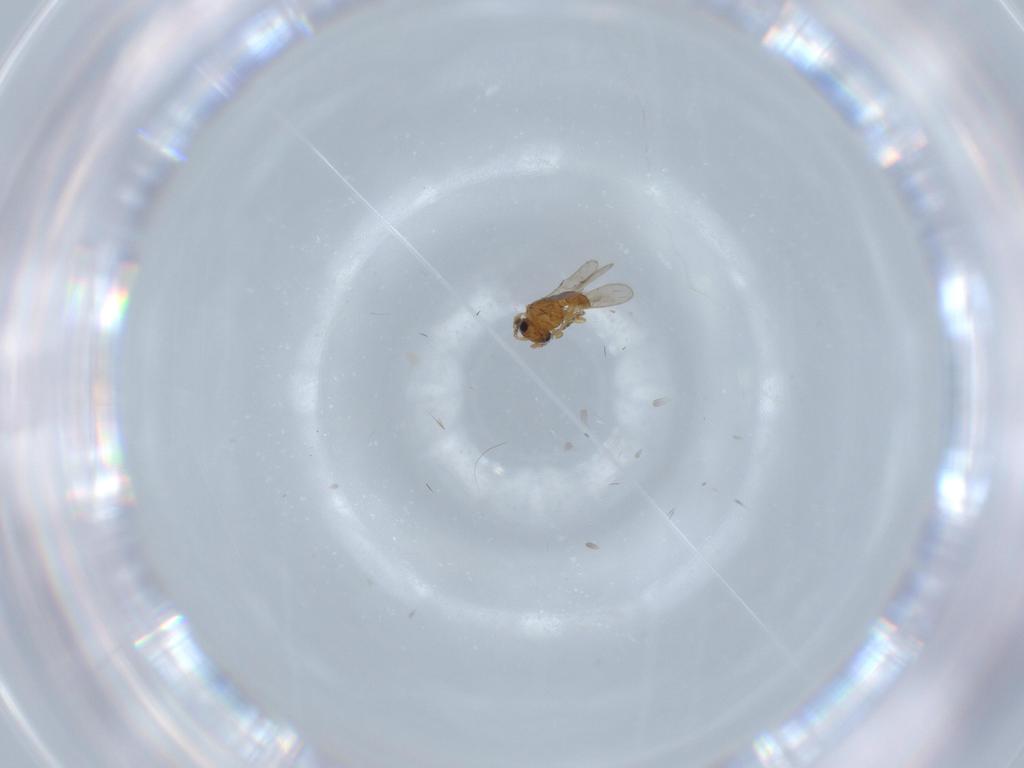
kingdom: Animalia
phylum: Arthropoda
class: Insecta
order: Hymenoptera
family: Scelionidae
